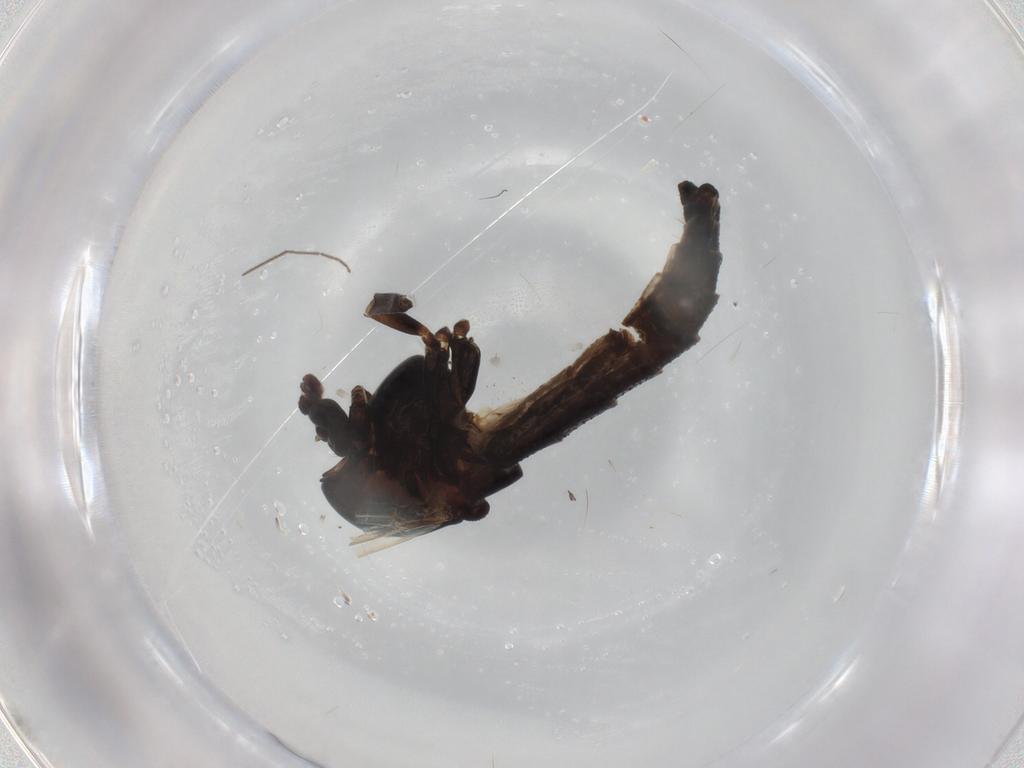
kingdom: Animalia
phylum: Arthropoda
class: Insecta
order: Diptera
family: Chironomidae
